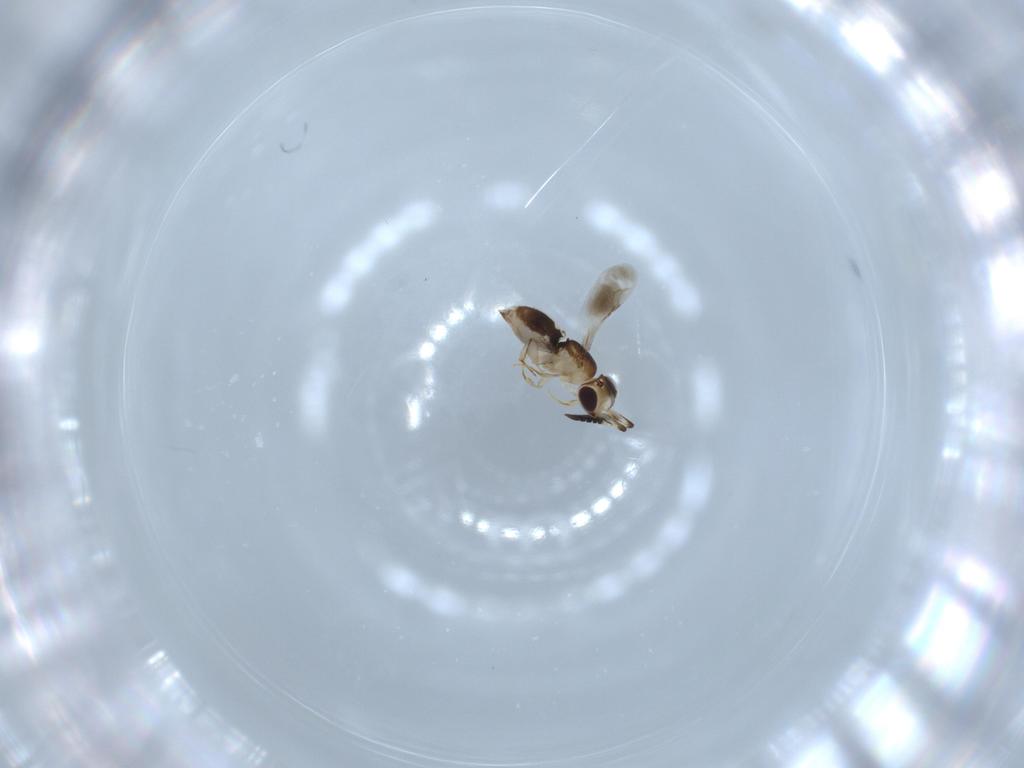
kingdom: Animalia
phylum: Arthropoda
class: Insecta
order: Hymenoptera
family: Scelionidae
